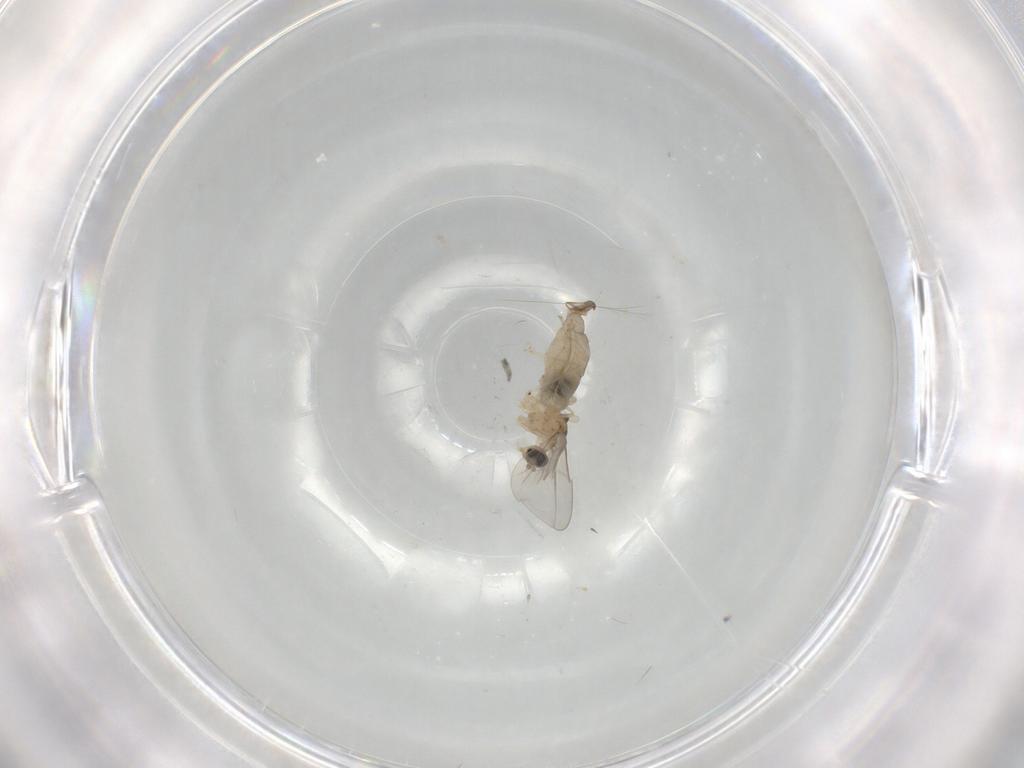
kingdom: Animalia
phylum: Arthropoda
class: Insecta
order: Diptera
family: Cecidomyiidae
